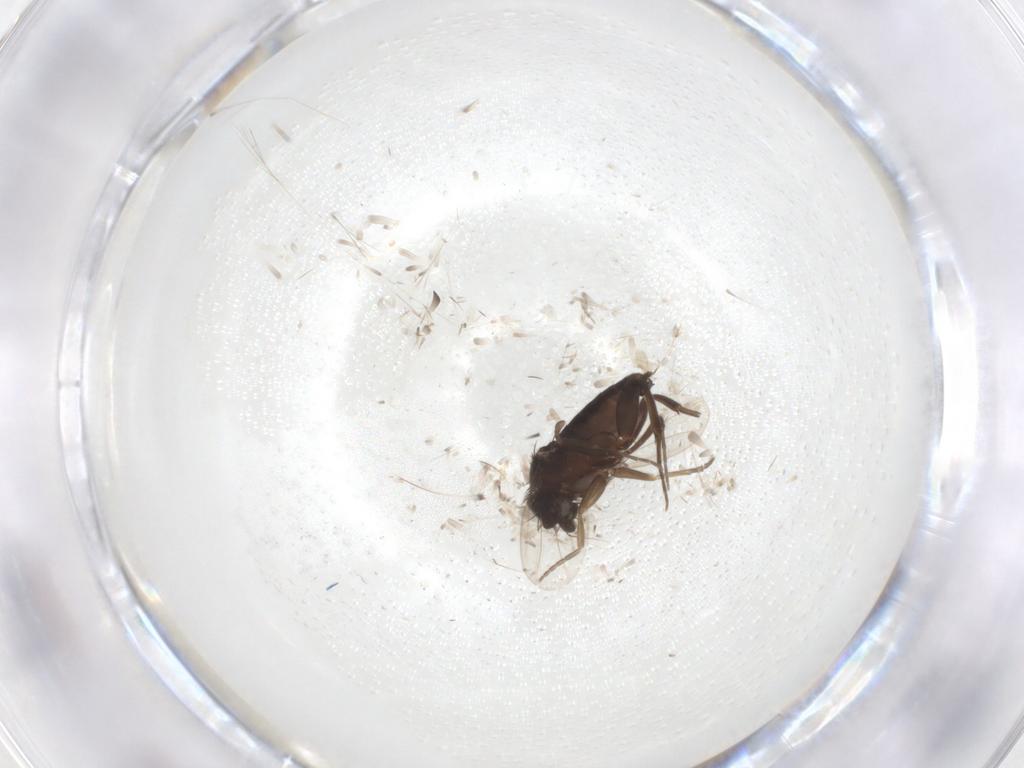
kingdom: Animalia
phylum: Arthropoda
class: Insecta
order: Diptera
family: Phoridae
